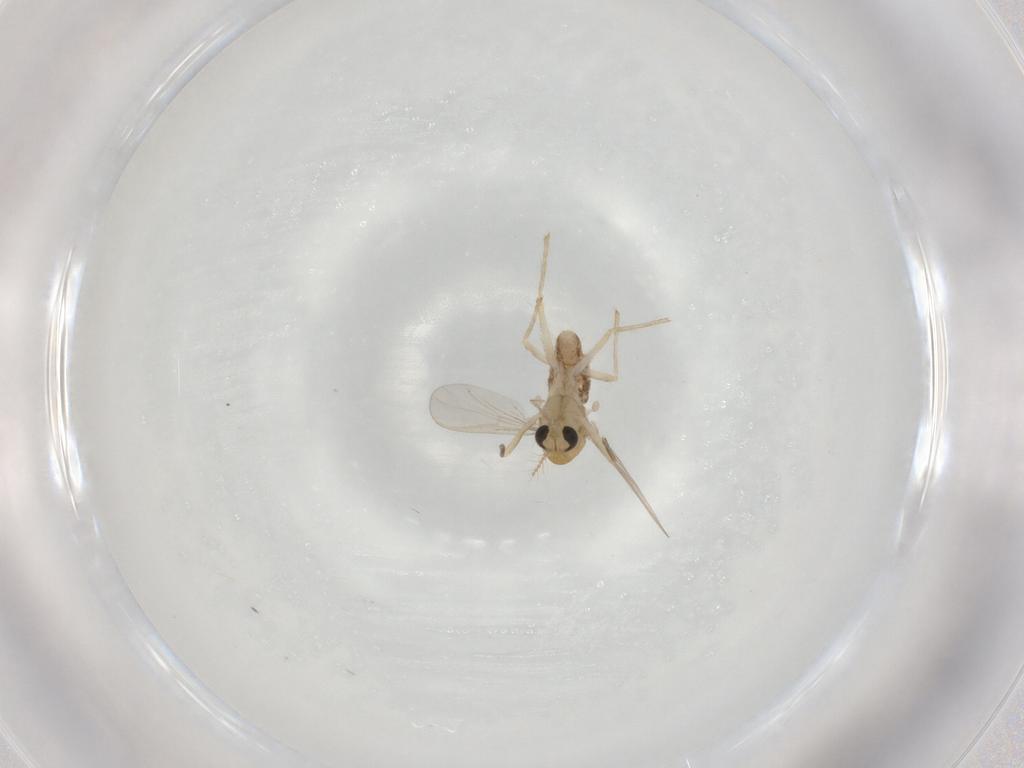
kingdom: Animalia
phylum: Arthropoda
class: Insecta
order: Diptera
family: Chironomidae
